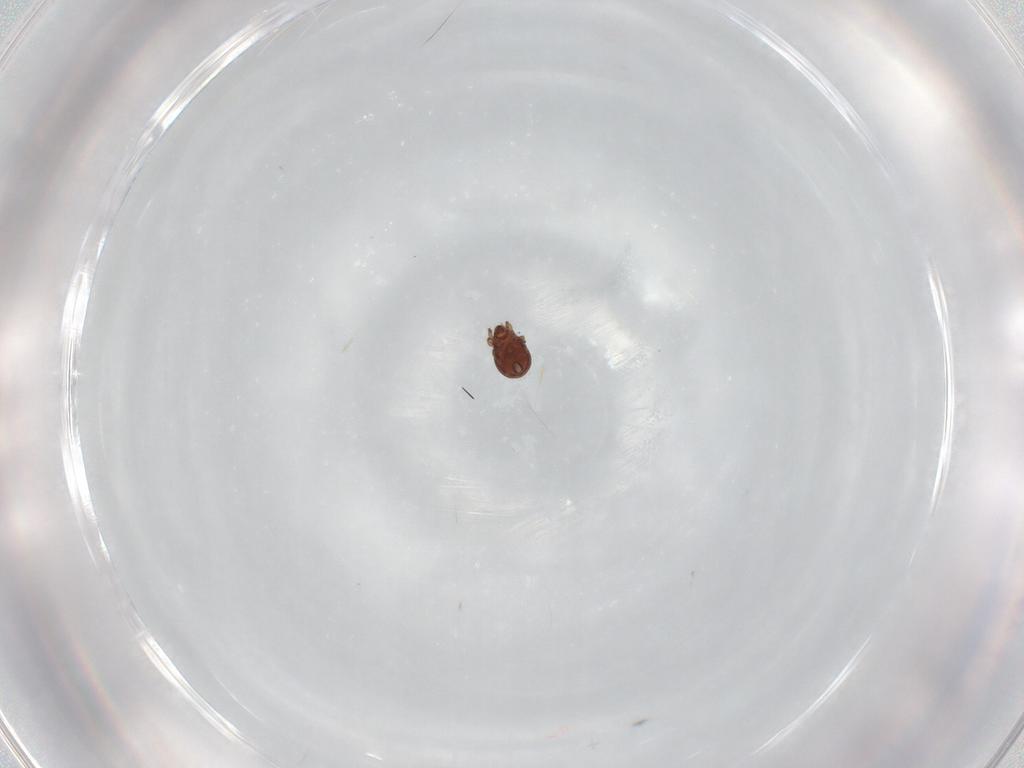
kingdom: Animalia
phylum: Arthropoda
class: Arachnida
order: Sarcoptiformes
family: Scheloribatidae
